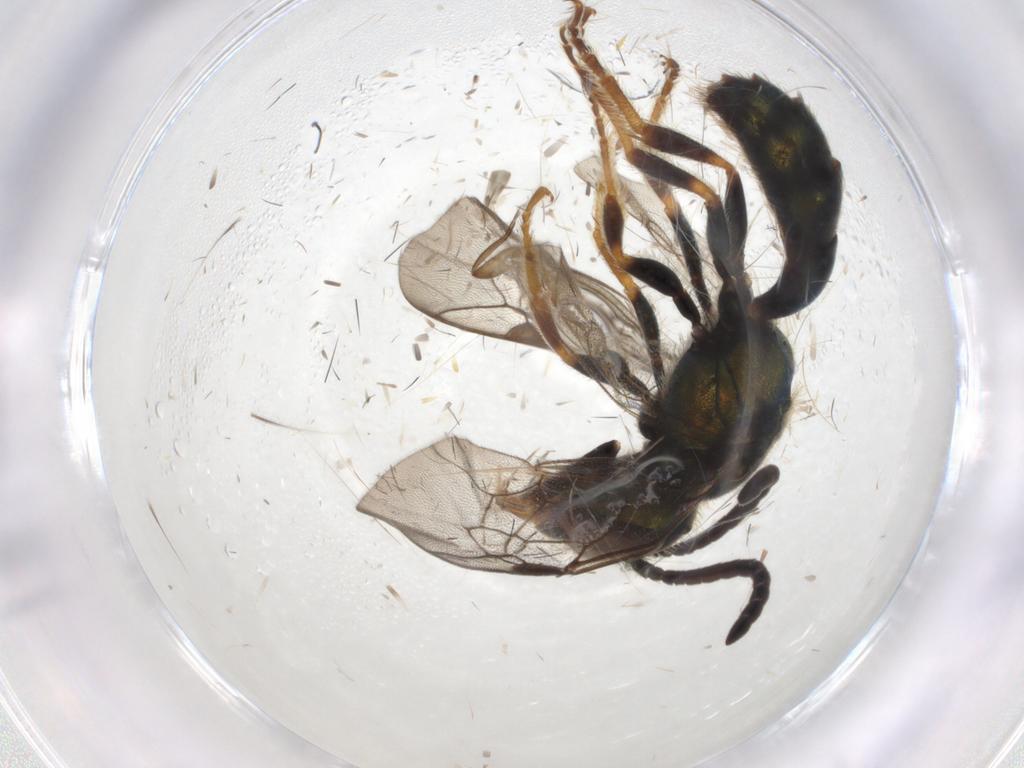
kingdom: Animalia
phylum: Arthropoda
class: Insecta
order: Hymenoptera
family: Halictidae
